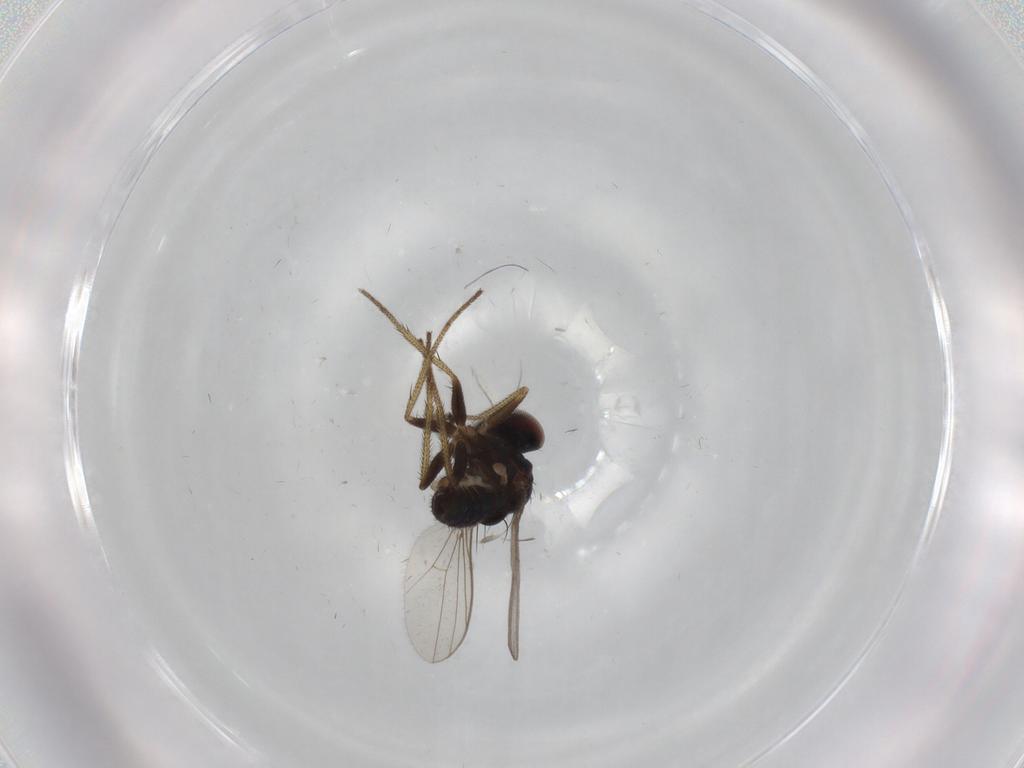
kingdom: Animalia
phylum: Arthropoda
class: Insecta
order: Diptera
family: Dolichopodidae
